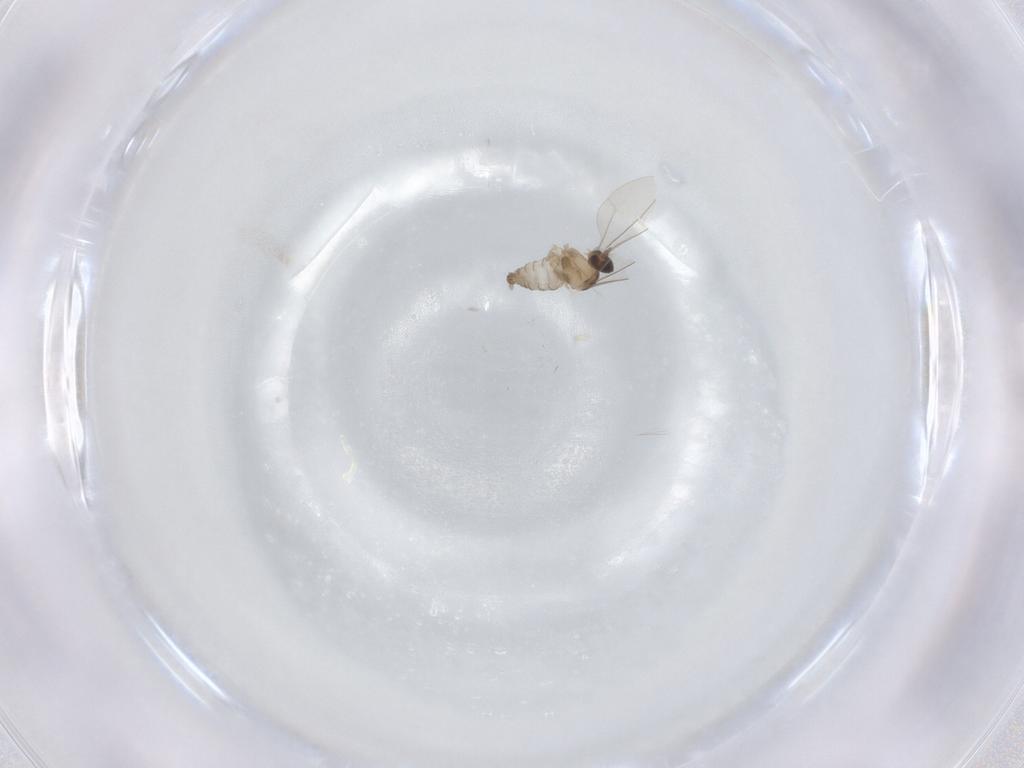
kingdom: Animalia
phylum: Arthropoda
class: Insecta
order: Diptera
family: Cecidomyiidae
